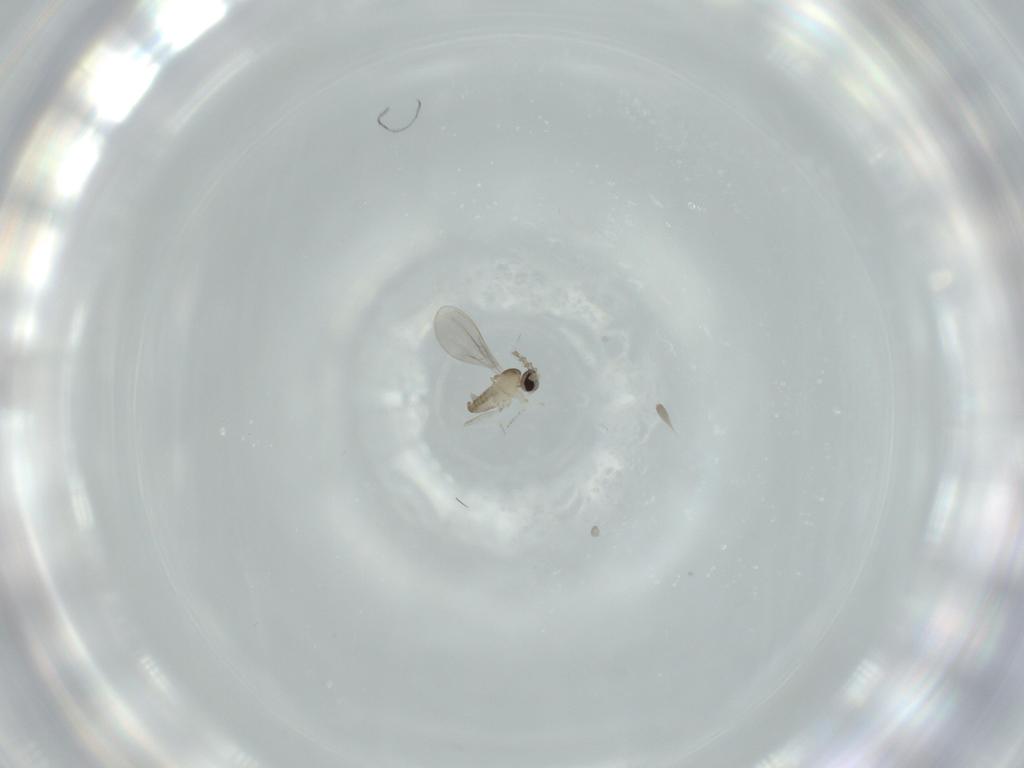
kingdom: Animalia
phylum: Arthropoda
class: Insecta
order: Diptera
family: Cecidomyiidae
